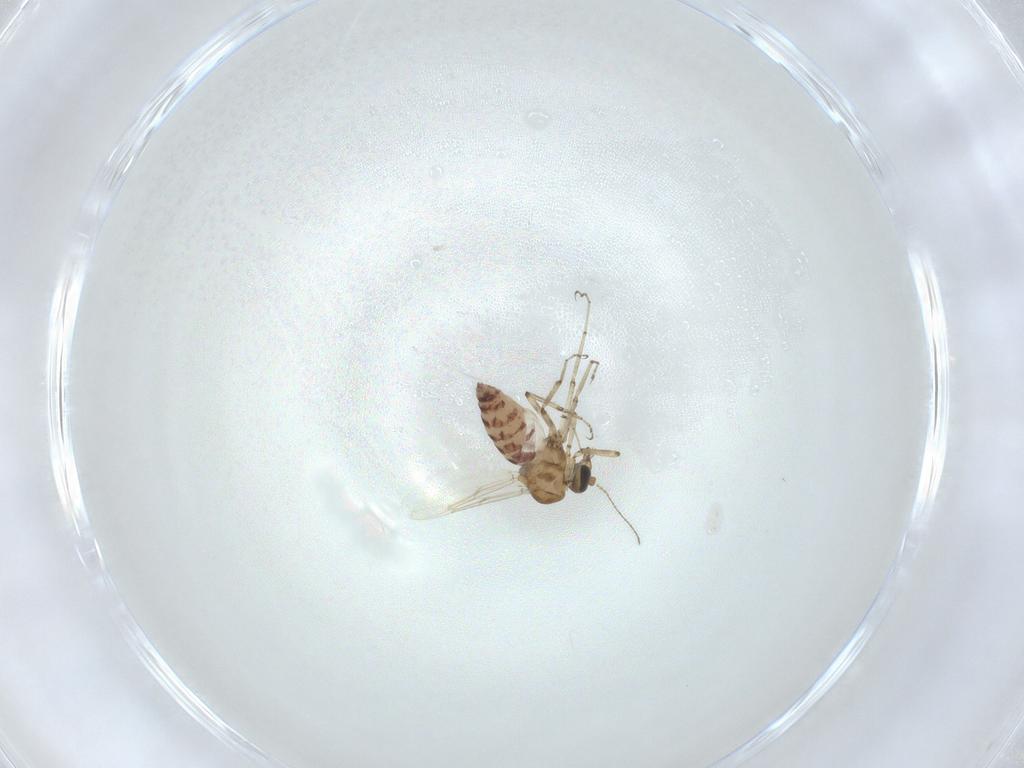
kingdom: Animalia
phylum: Arthropoda
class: Insecta
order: Diptera
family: Ceratopogonidae
